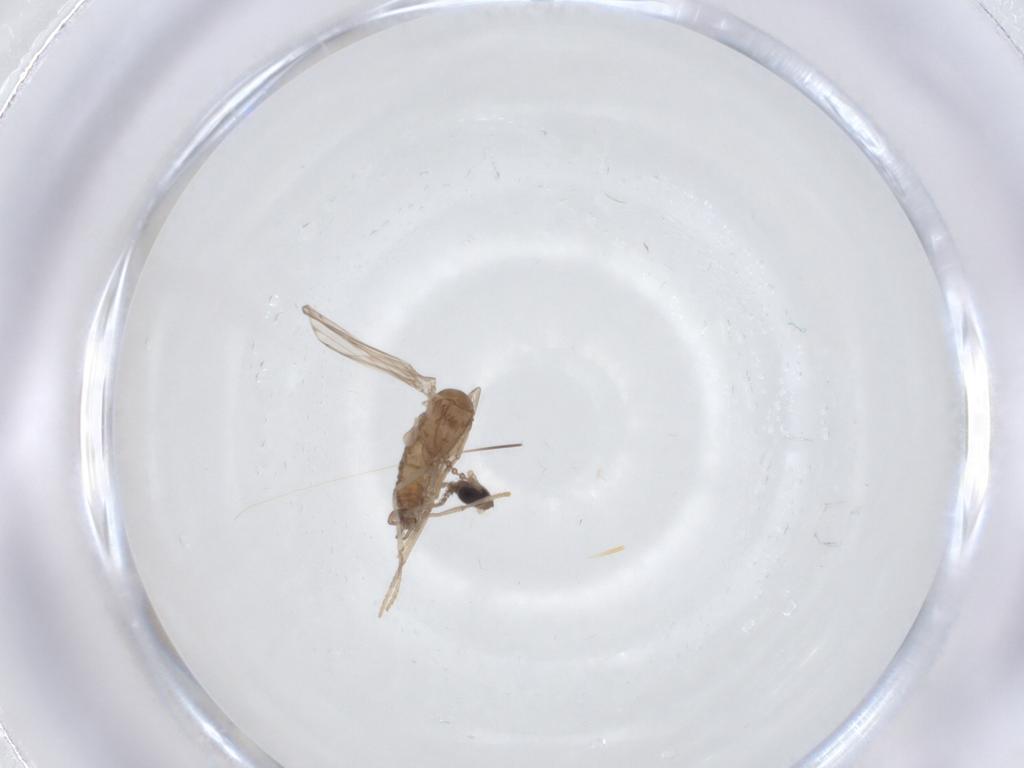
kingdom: Animalia
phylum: Arthropoda
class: Insecta
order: Diptera
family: Psychodidae
